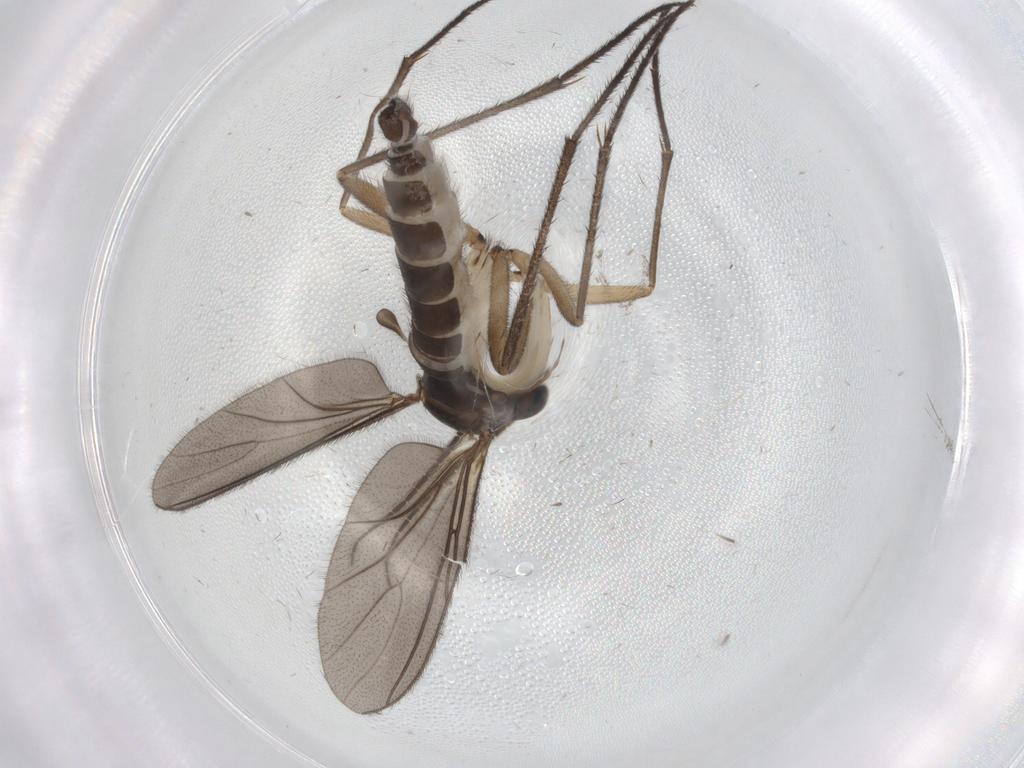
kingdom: Animalia
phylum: Arthropoda
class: Insecta
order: Diptera
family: Sciaridae
